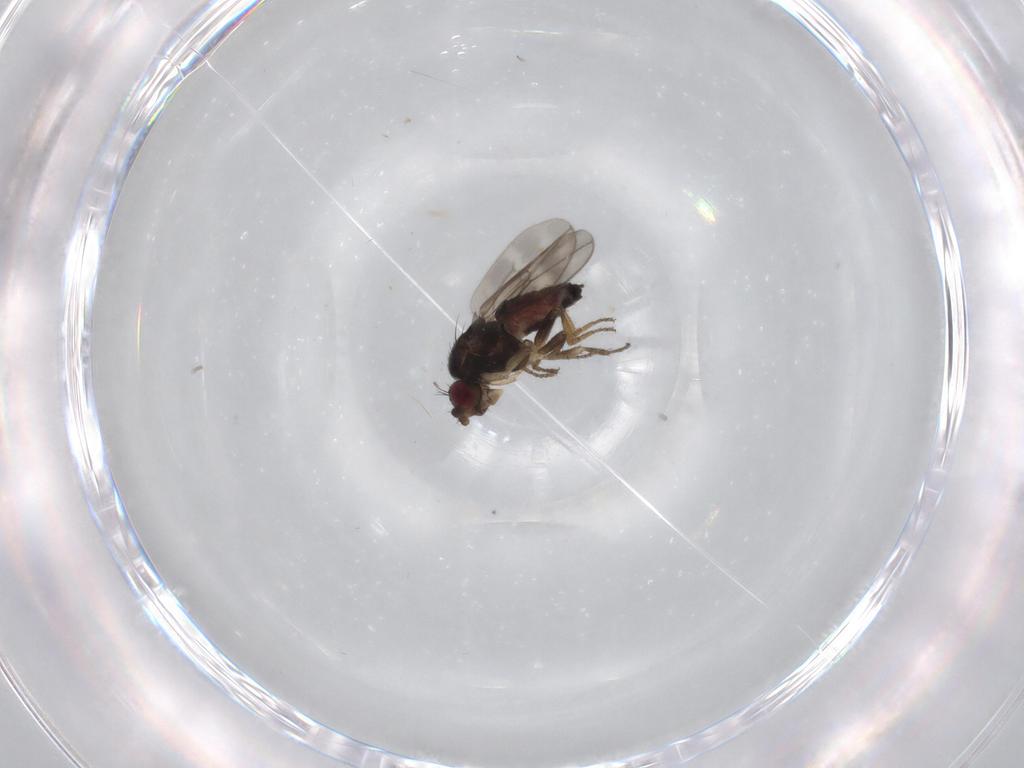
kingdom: Animalia
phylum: Arthropoda
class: Insecta
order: Diptera
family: Sphaeroceridae
